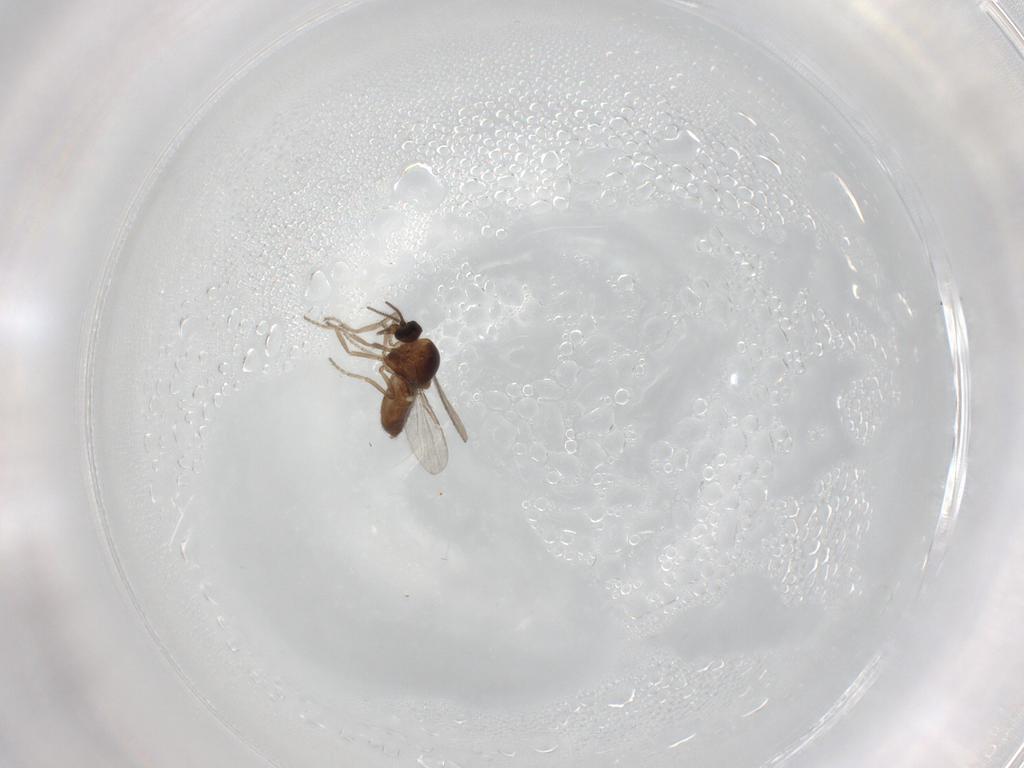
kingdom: Animalia
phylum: Arthropoda
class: Insecta
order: Diptera
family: Ceratopogonidae
